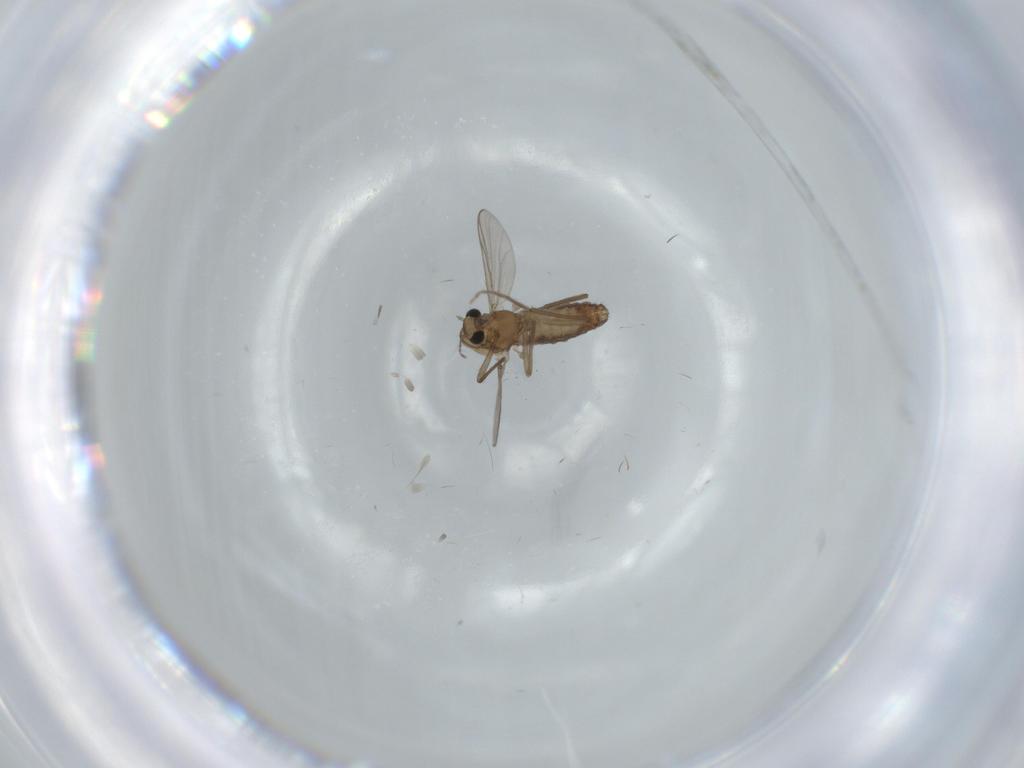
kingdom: Animalia
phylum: Arthropoda
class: Insecta
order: Diptera
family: Chironomidae
